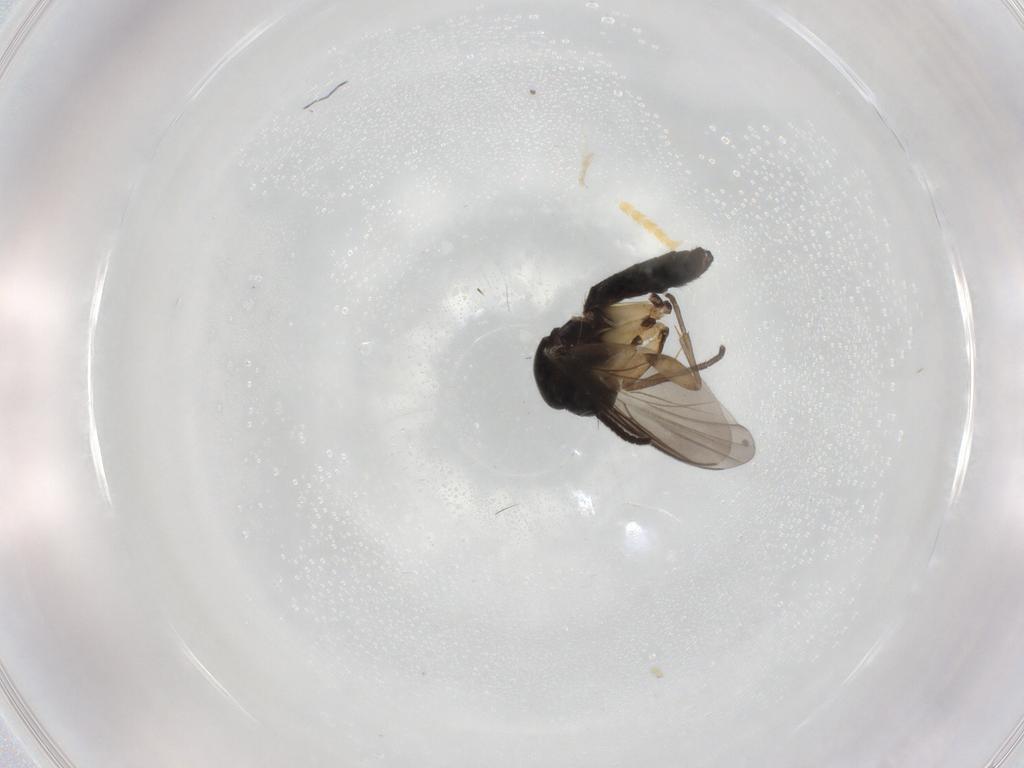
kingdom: Animalia
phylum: Arthropoda
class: Insecta
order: Diptera
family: Mycetophilidae
